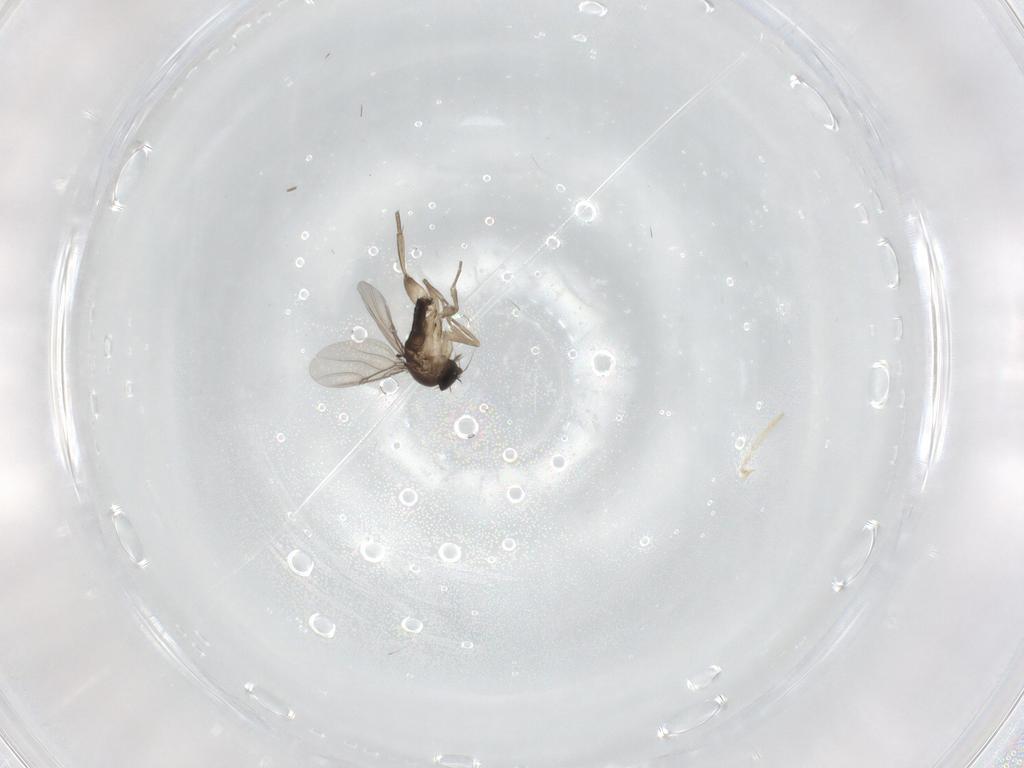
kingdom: Animalia
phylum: Arthropoda
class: Insecta
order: Diptera
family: Phoridae
